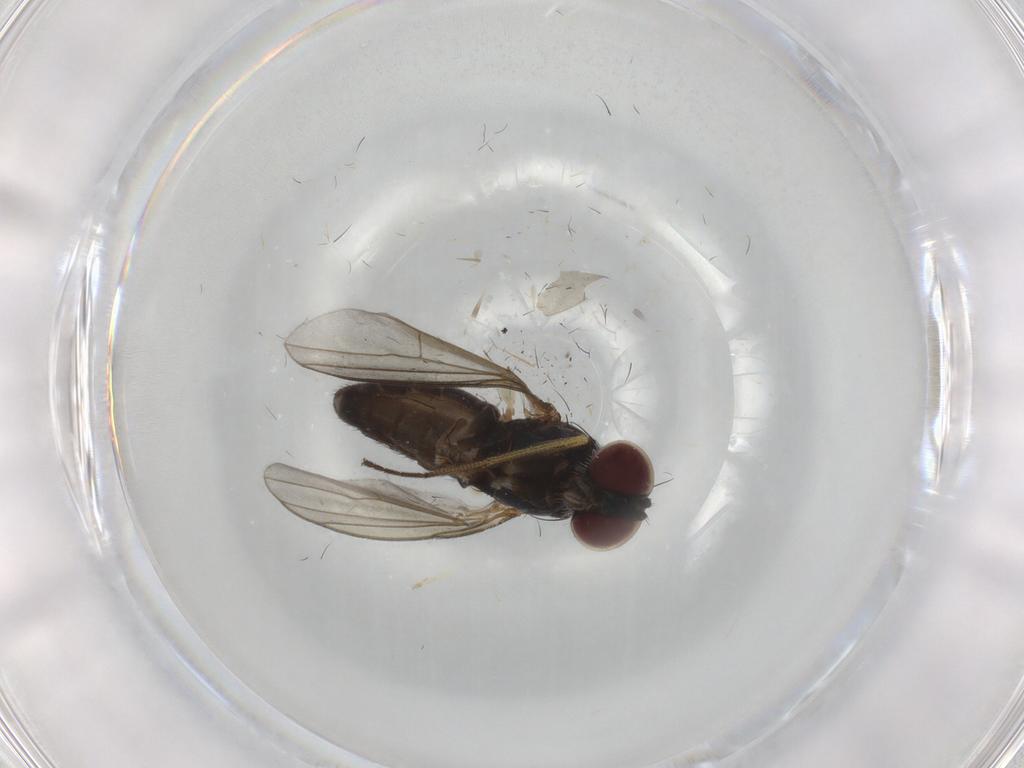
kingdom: Animalia
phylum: Arthropoda
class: Insecta
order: Diptera
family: Dolichopodidae
